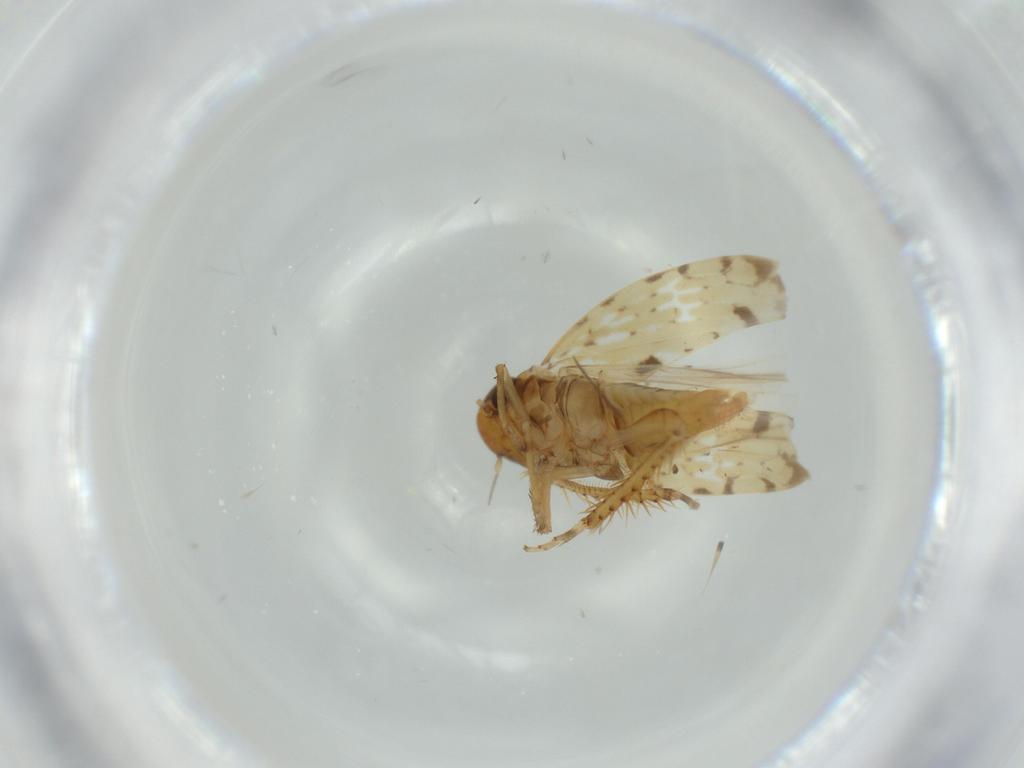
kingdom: Animalia
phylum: Arthropoda
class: Insecta
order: Hemiptera
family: Cicadellidae
